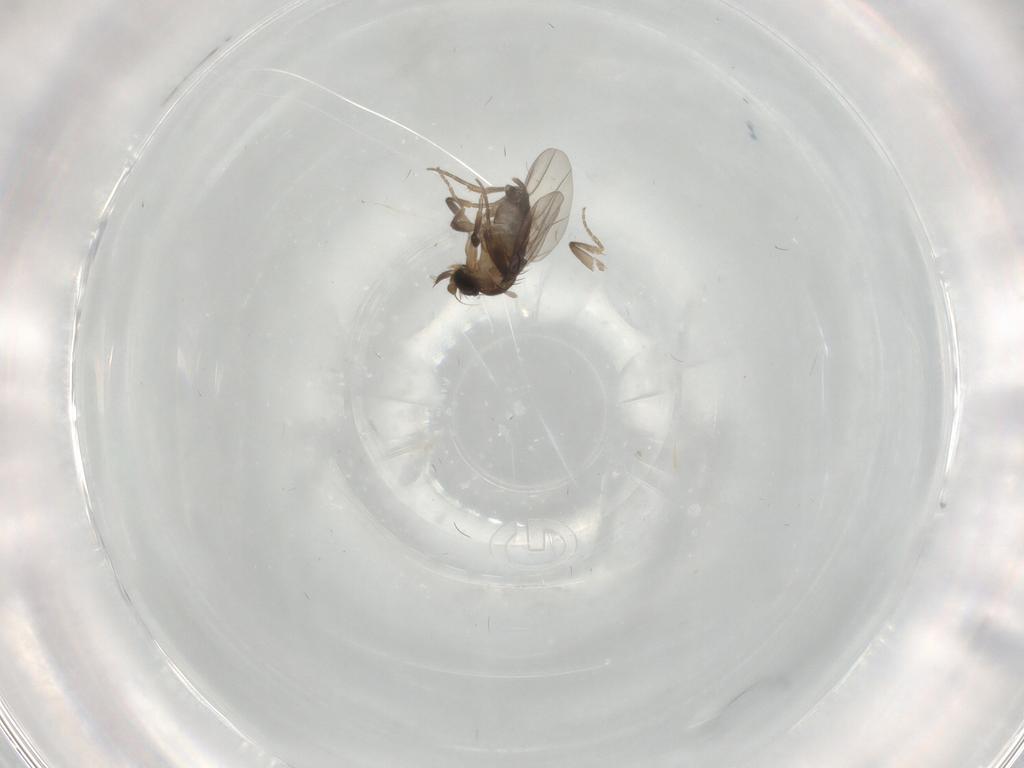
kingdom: Animalia
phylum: Arthropoda
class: Insecta
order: Diptera
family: Phoridae
